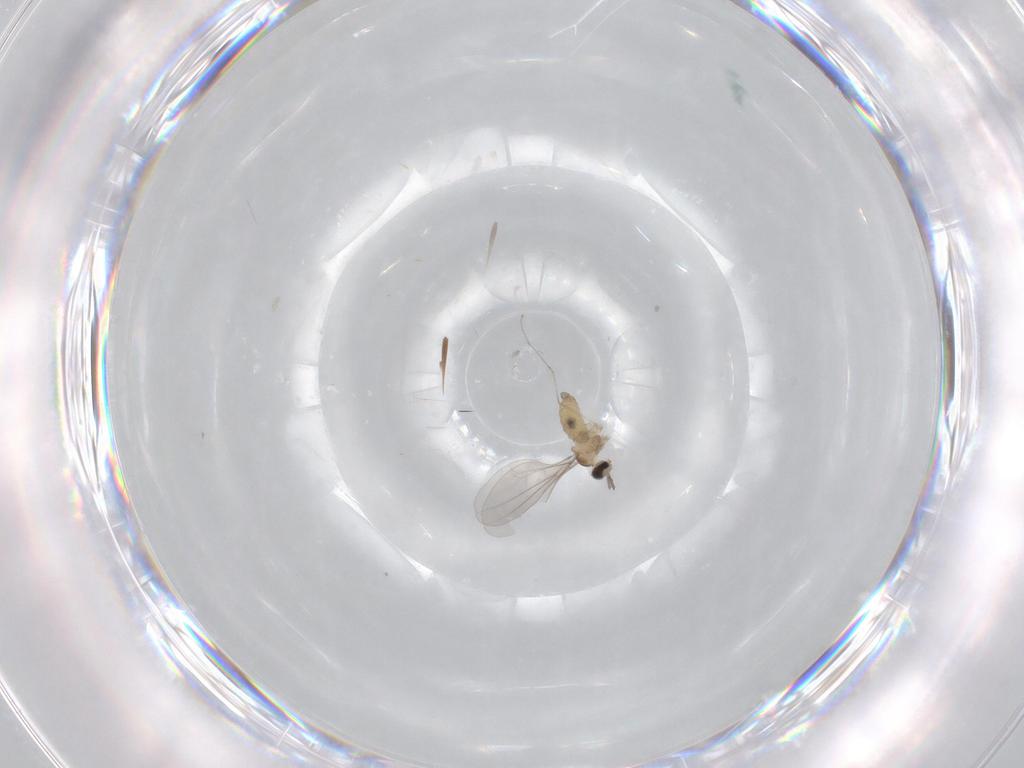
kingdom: Animalia
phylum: Arthropoda
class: Insecta
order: Diptera
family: Cecidomyiidae
